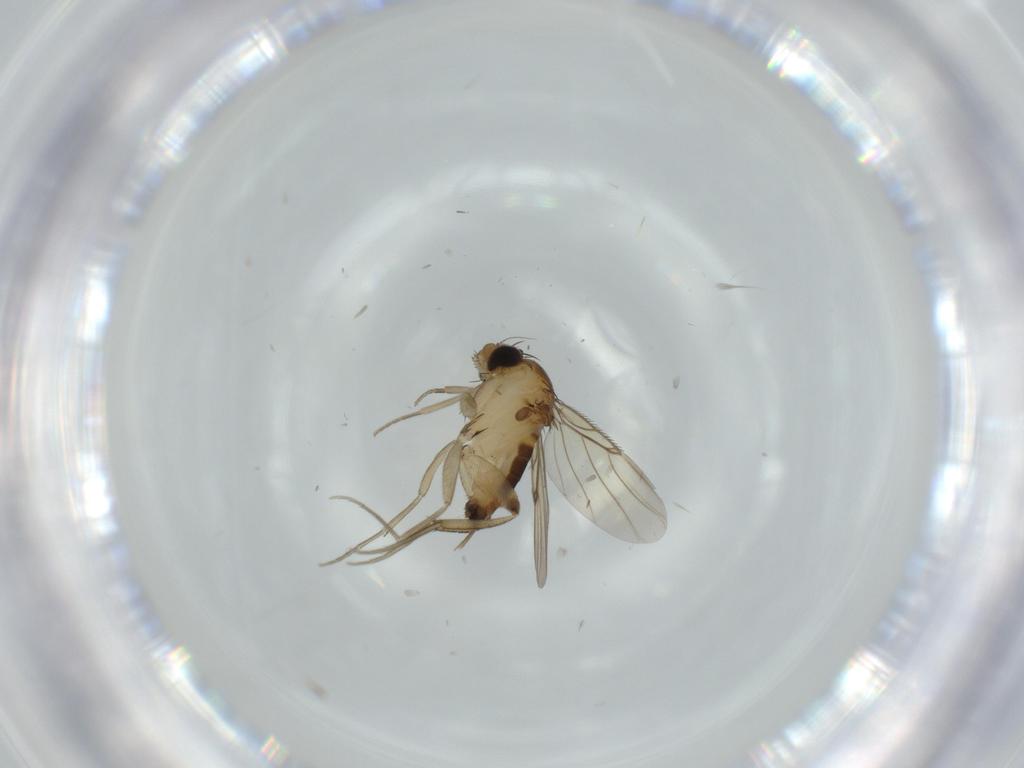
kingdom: Animalia
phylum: Arthropoda
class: Insecta
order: Diptera
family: Phoridae
